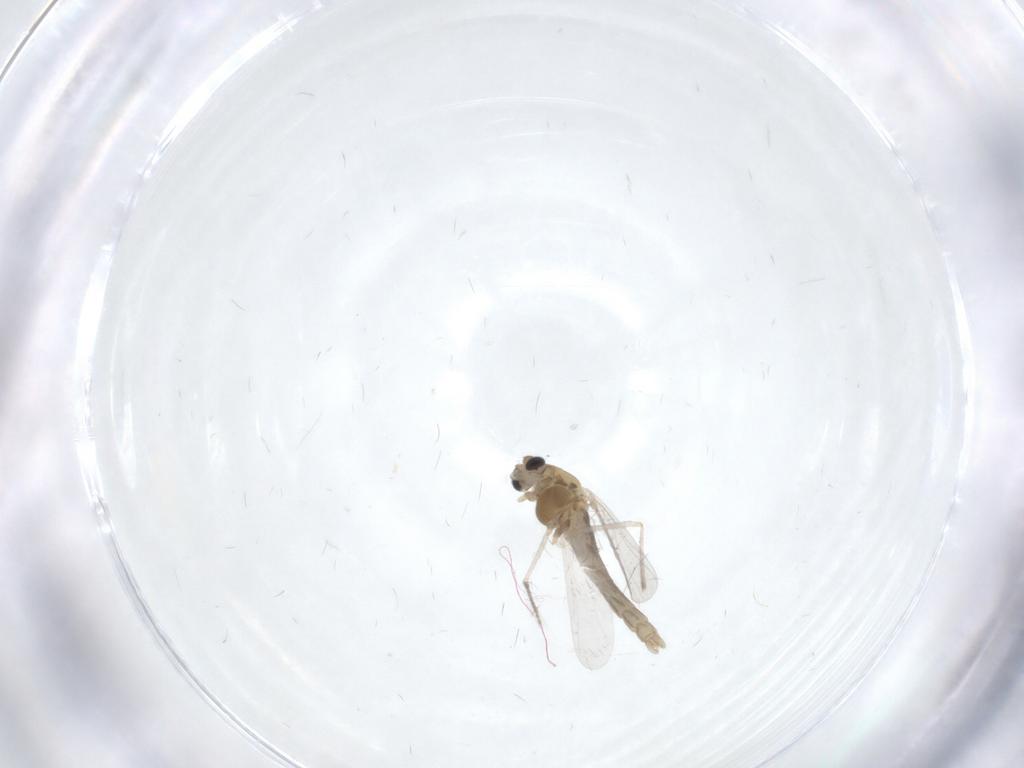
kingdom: Animalia
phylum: Arthropoda
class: Insecta
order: Diptera
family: Chironomidae
